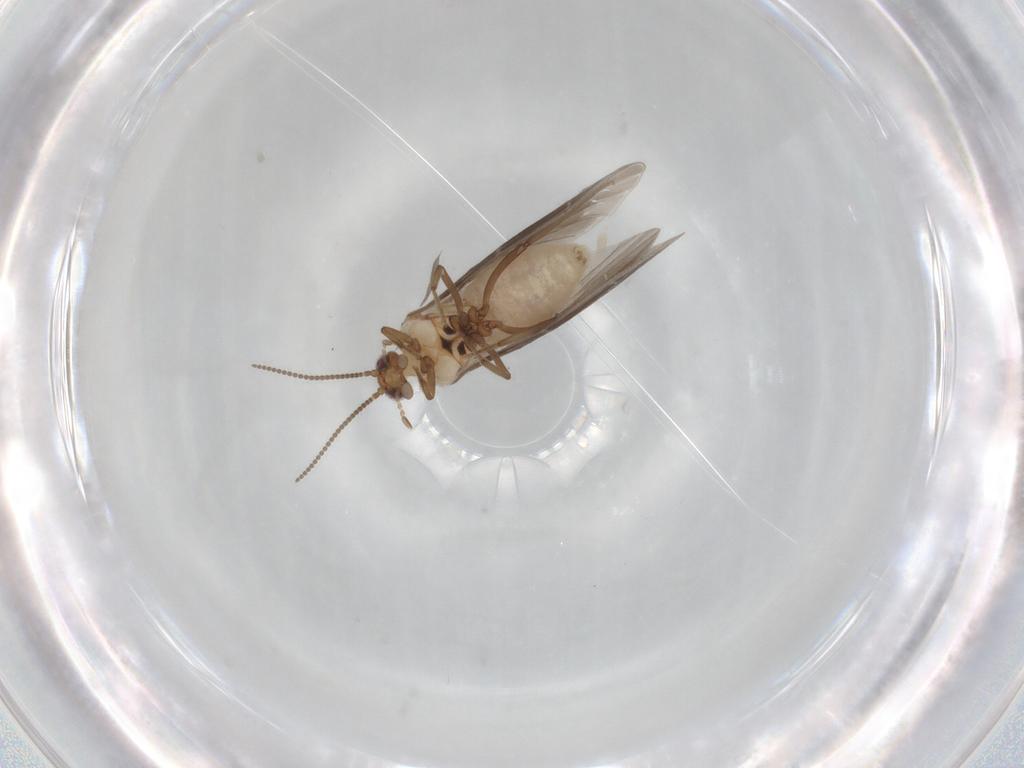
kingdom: Animalia
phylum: Arthropoda
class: Insecta
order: Neuroptera
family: Coniopterygidae
